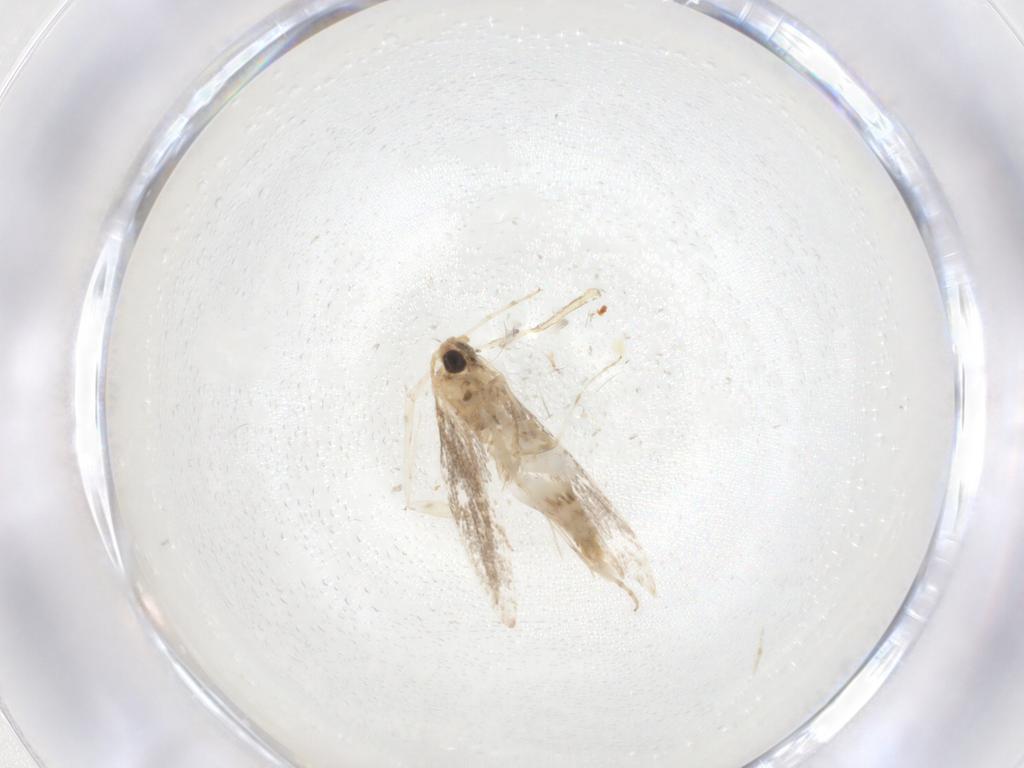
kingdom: Animalia
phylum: Arthropoda
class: Insecta
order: Lepidoptera
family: Gracillariidae
